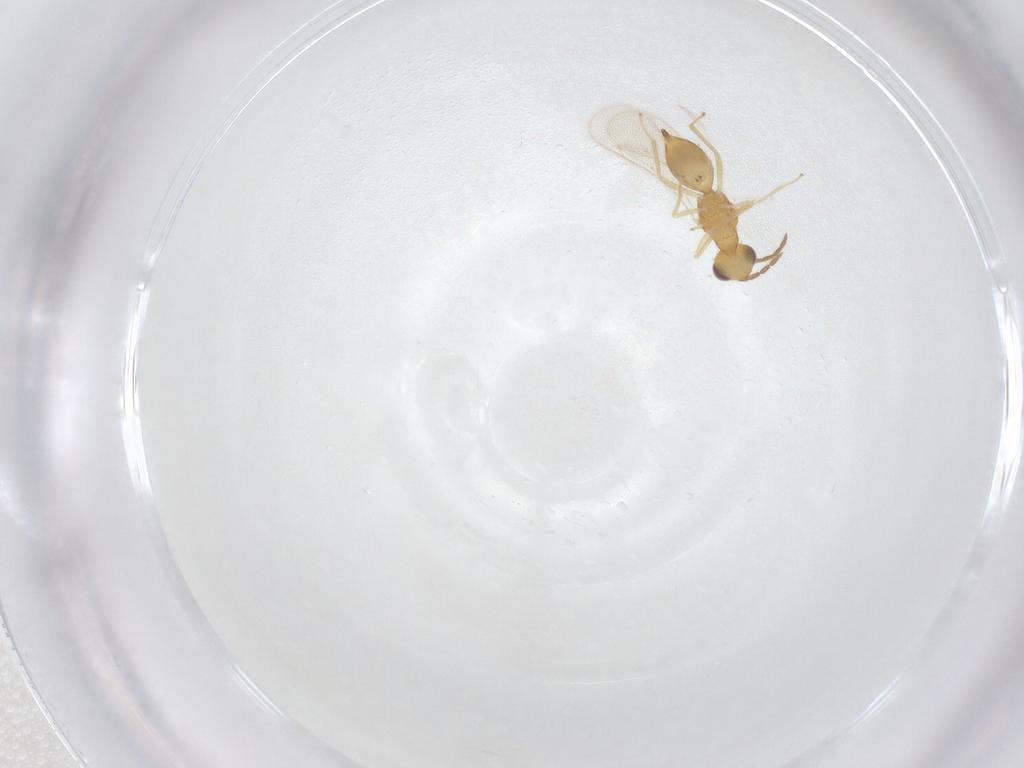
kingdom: Animalia
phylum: Arthropoda
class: Insecta
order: Hymenoptera
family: Eulophidae
